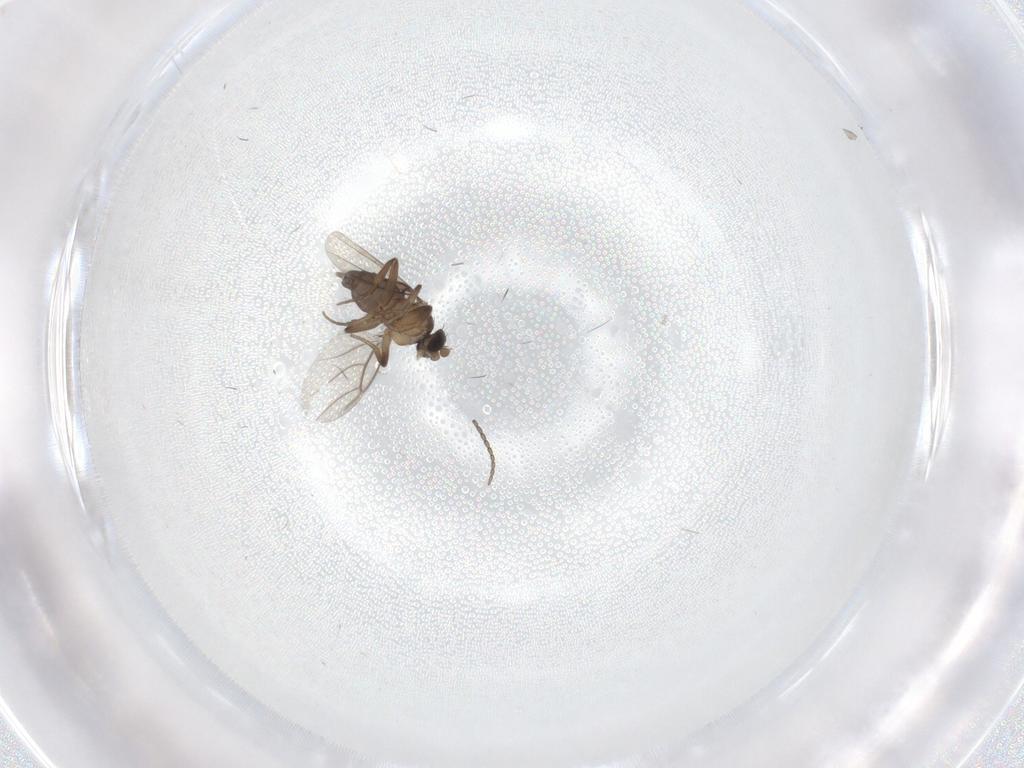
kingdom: Animalia
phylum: Arthropoda
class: Insecta
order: Diptera
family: Phoridae
